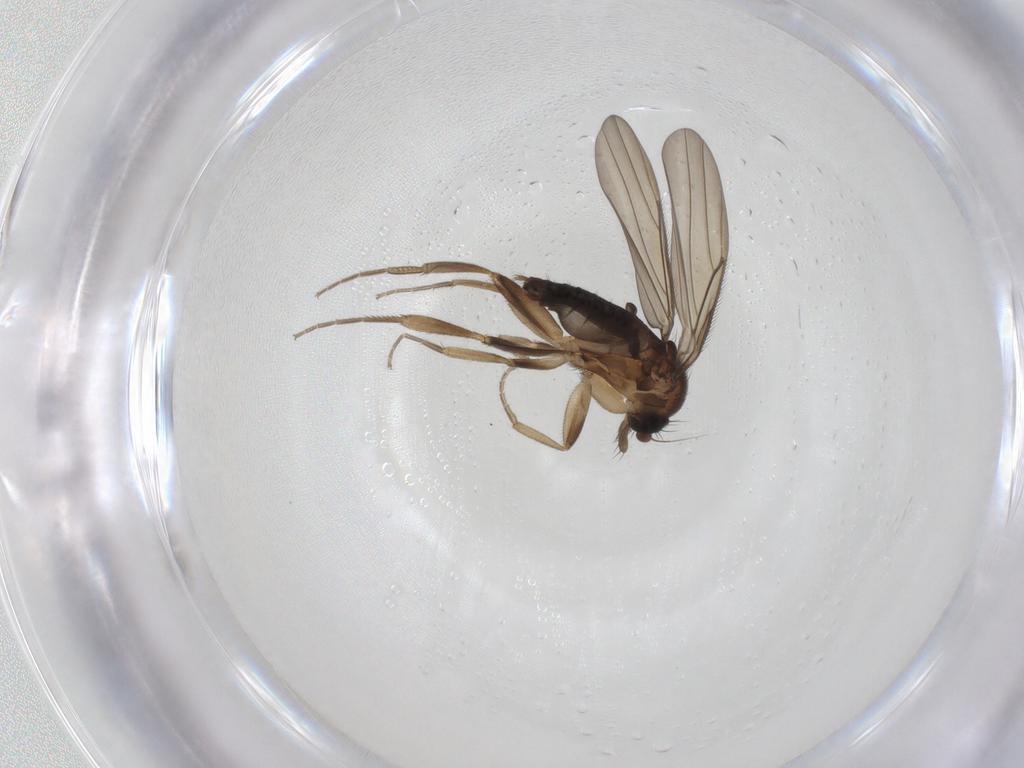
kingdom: Animalia
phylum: Arthropoda
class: Insecta
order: Diptera
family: Phoridae
